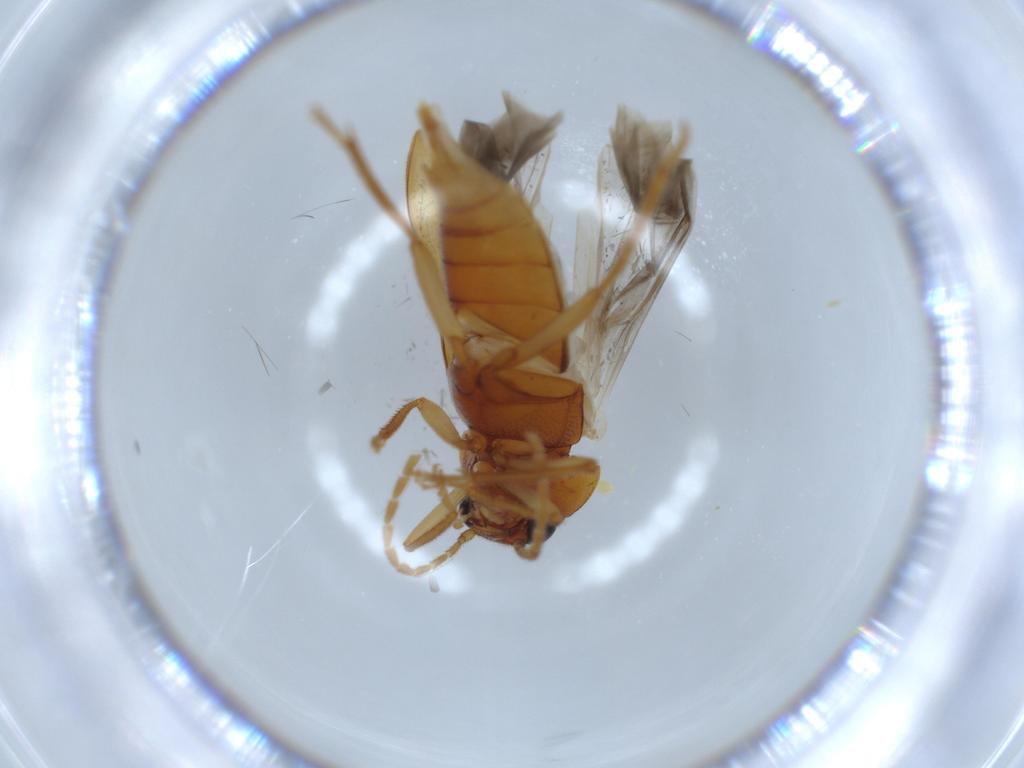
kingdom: Animalia
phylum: Arthropoda
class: Insecta
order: Coleoptera
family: Ptilodactylidae
